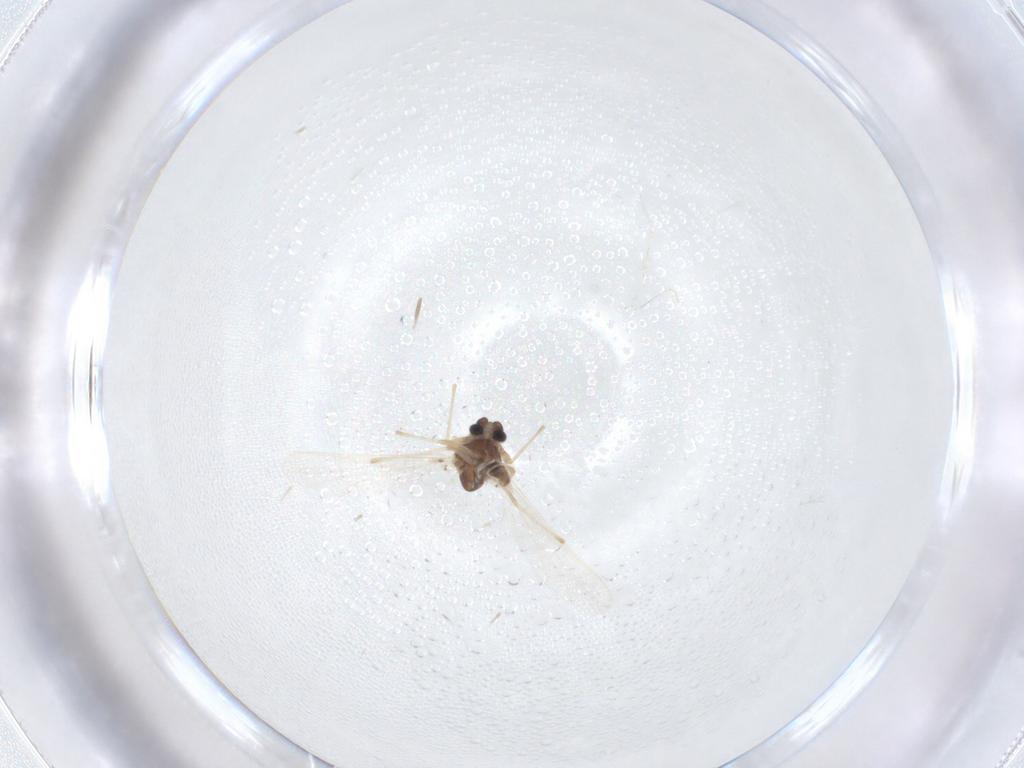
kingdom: Animalia
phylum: Arthropoda
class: Insecta
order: Diptera
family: Chironomidae
